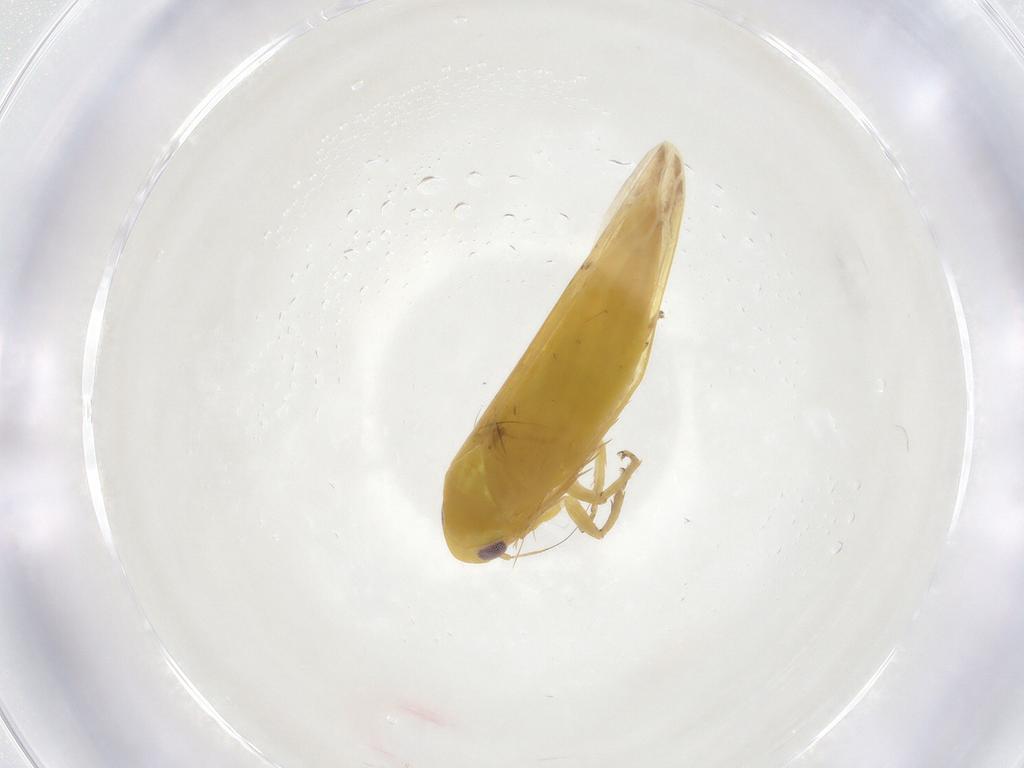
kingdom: Animalia
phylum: Arthropoda
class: Insecta
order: Hemiptera
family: Cicadellidae
